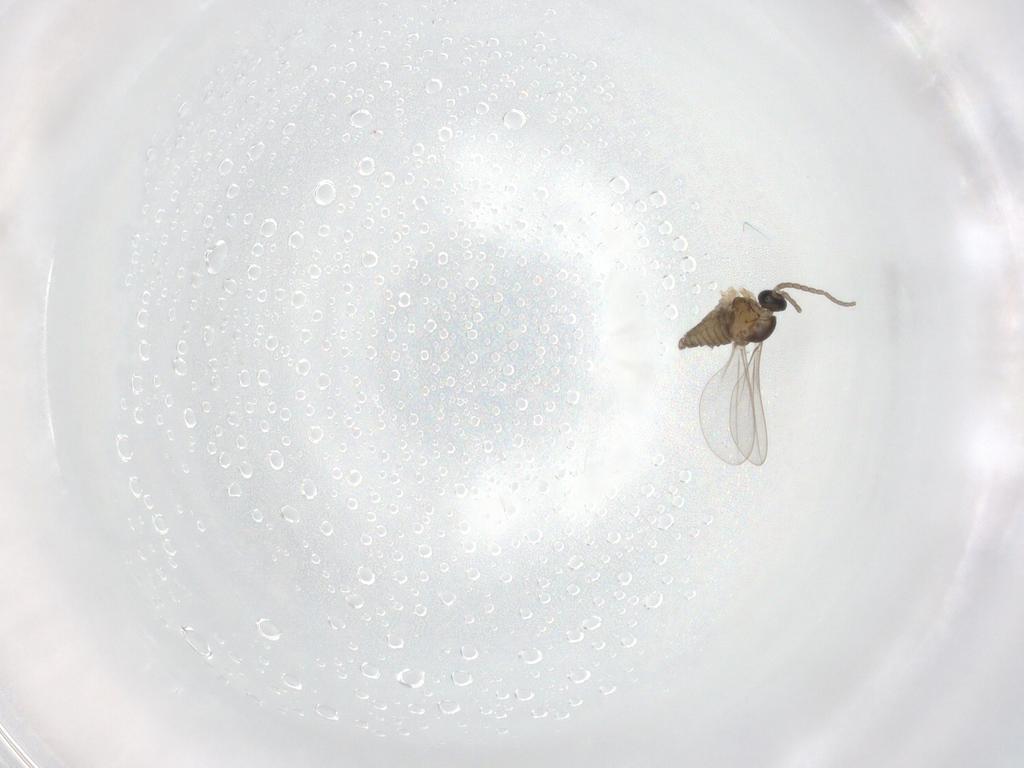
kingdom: Animalia
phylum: Arthropoda
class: Insecta
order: Diptera
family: Cecidomyiidae
